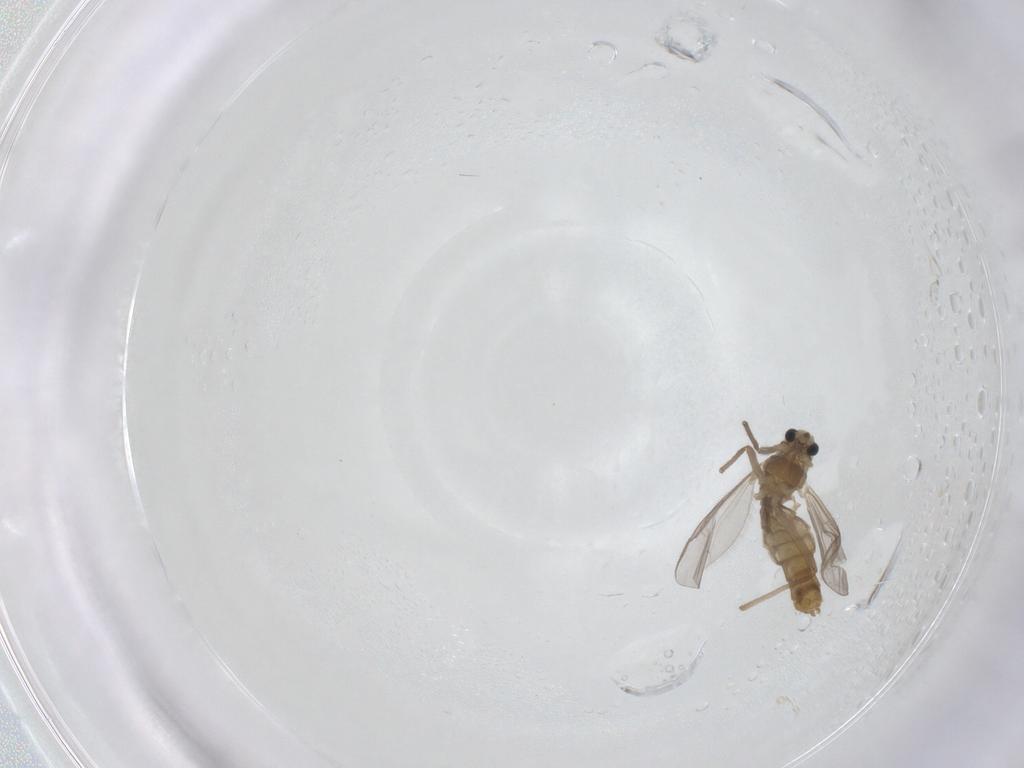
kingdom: Animalia
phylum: Arthropoda
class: Insecta
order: Diptera
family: Chironomidae
